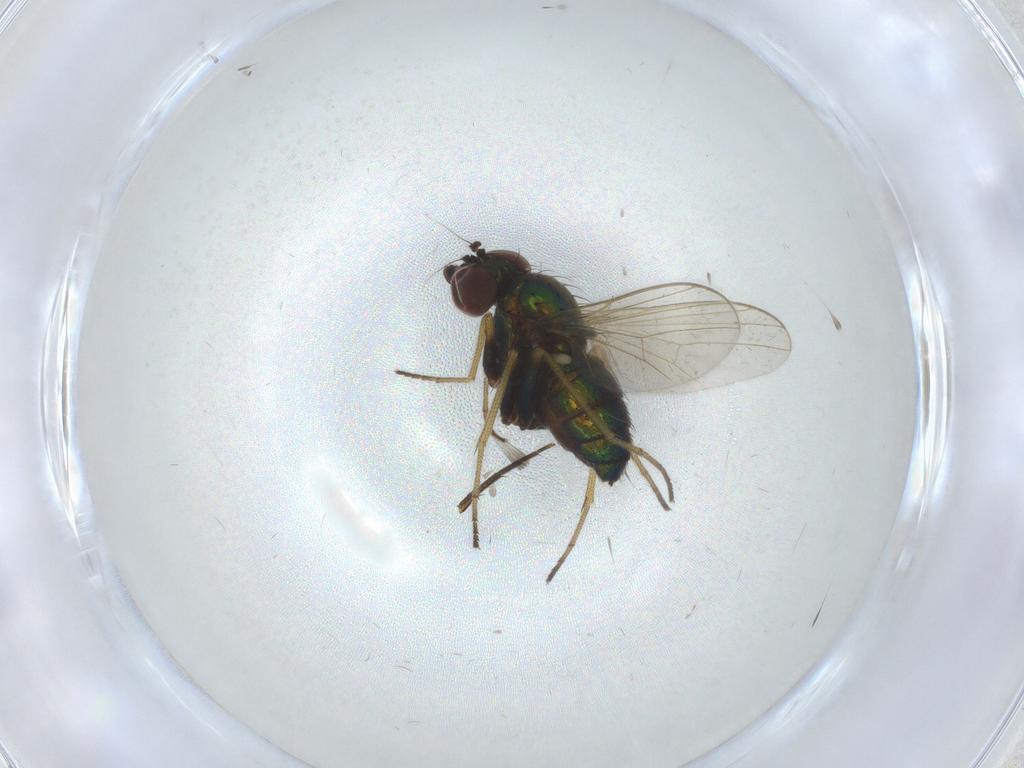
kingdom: Animalia
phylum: Arthropoda
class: Insecta
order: Diptera
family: Dolichopodidae
